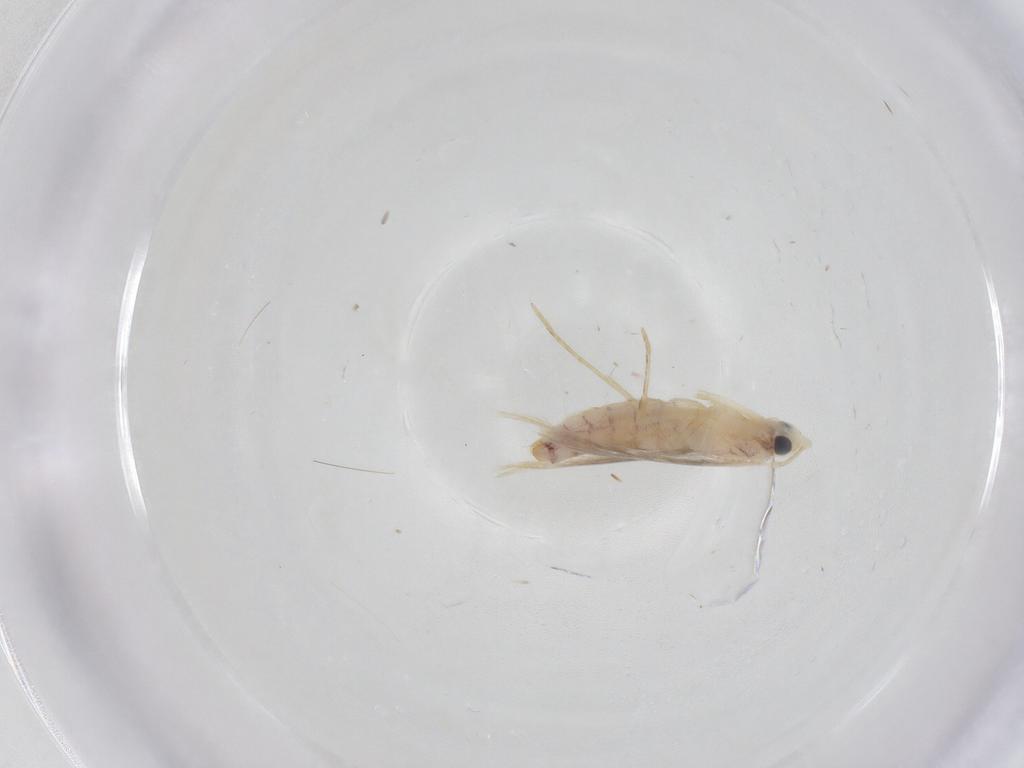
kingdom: Animalia
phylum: Arthropoda
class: Insecta
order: Lepidoptera
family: Tineidae
